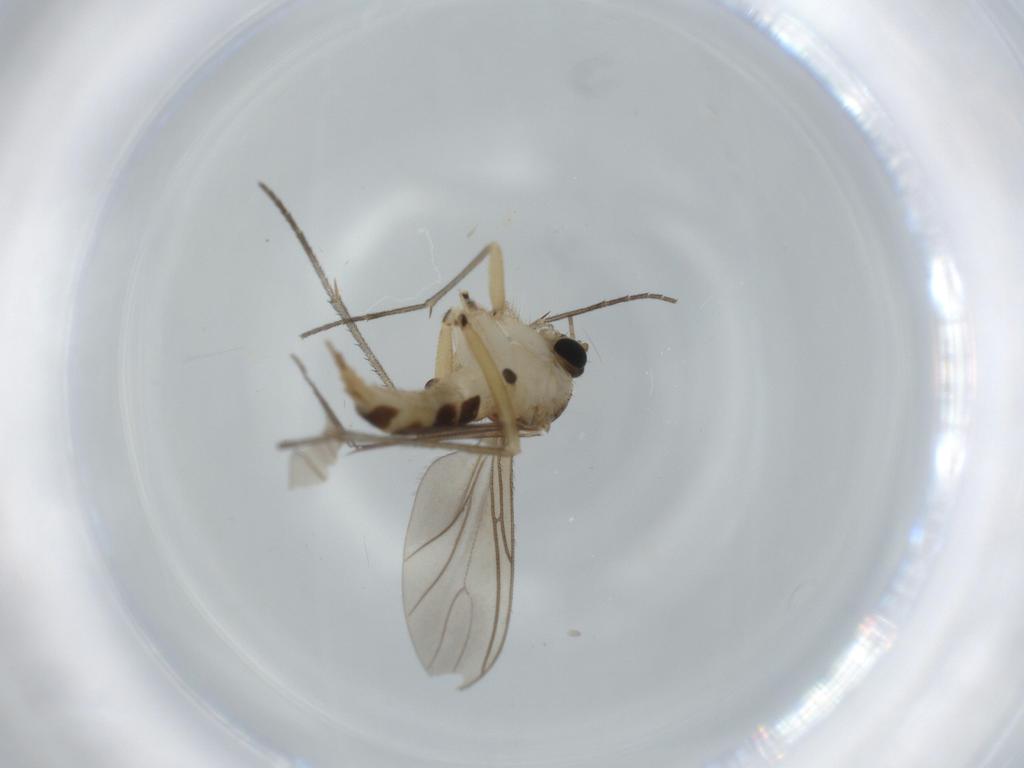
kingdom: Animalia
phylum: Arthropoda
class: Insecta
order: Diptera
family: Sciaridae
